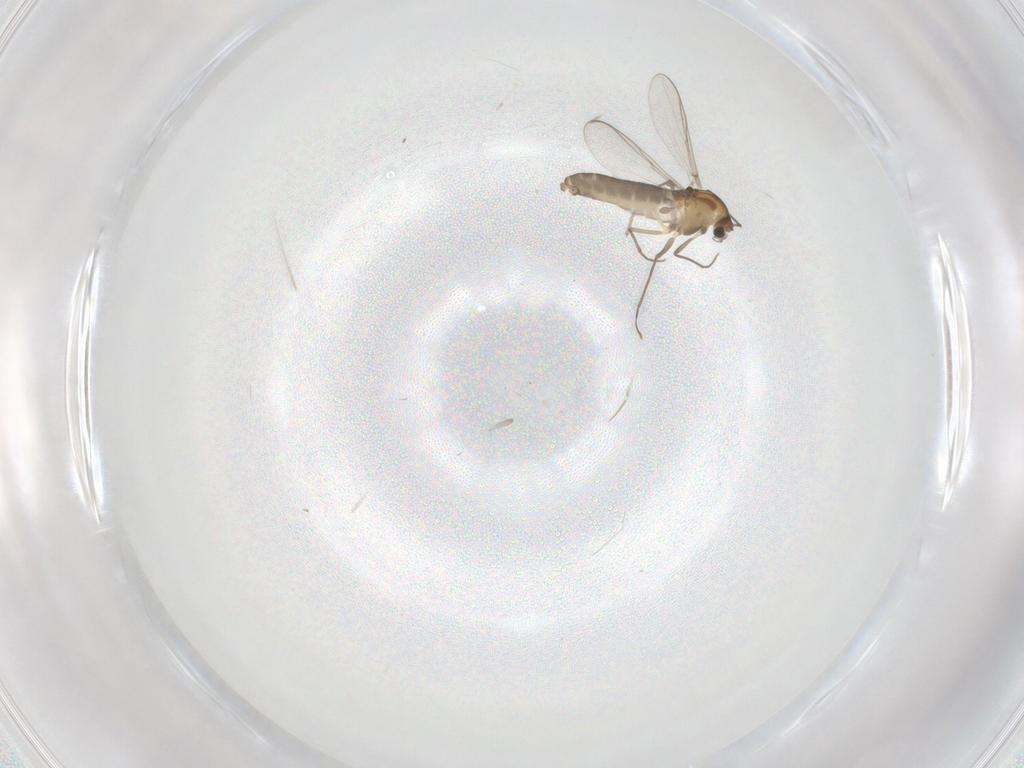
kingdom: Animalia
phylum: Arthropoda
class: Insecta
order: Diptera
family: Chironomidae
